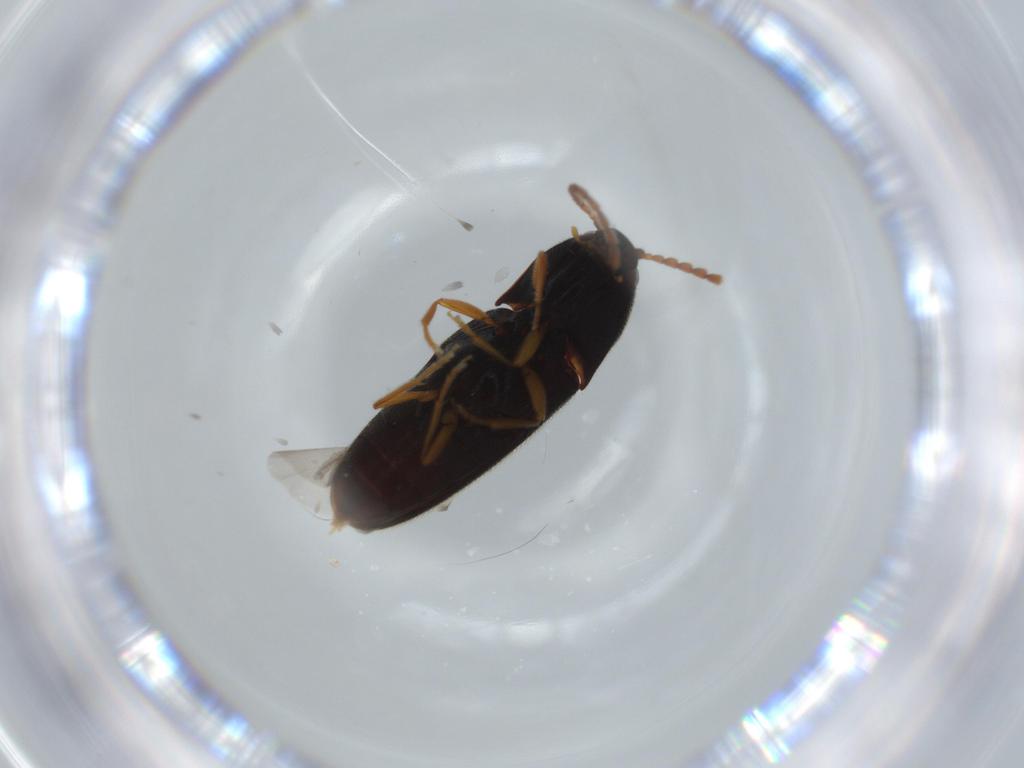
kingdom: Animalia
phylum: Arthropoda
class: Insecta
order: Coleoptera
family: Elateridae
